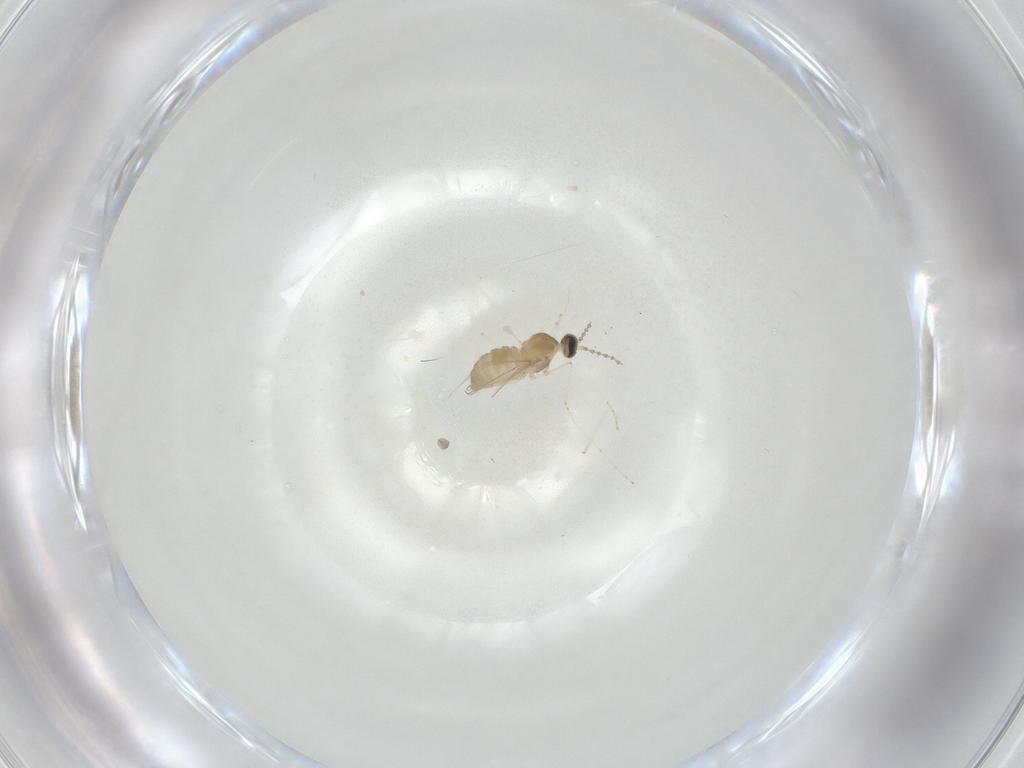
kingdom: Animalia
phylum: Arthropoda
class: Insecta
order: Diptera
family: Cecidomyiidae
